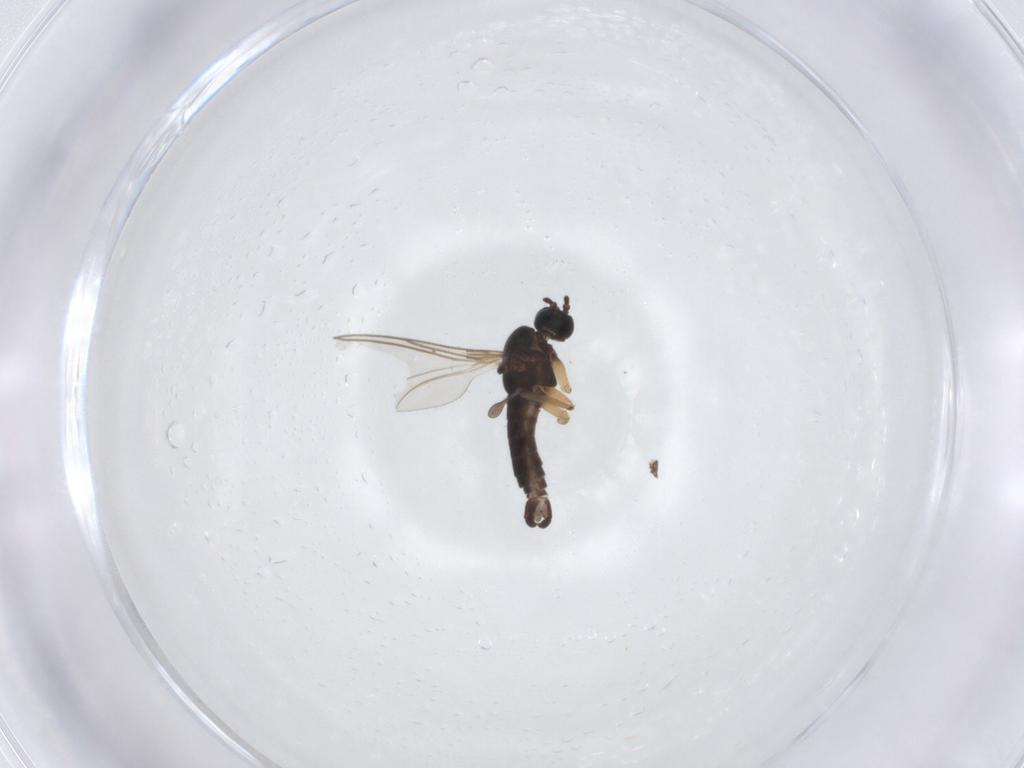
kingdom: Animalia
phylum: Arthropoda
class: Insecta
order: Diptera
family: Sciaridae
